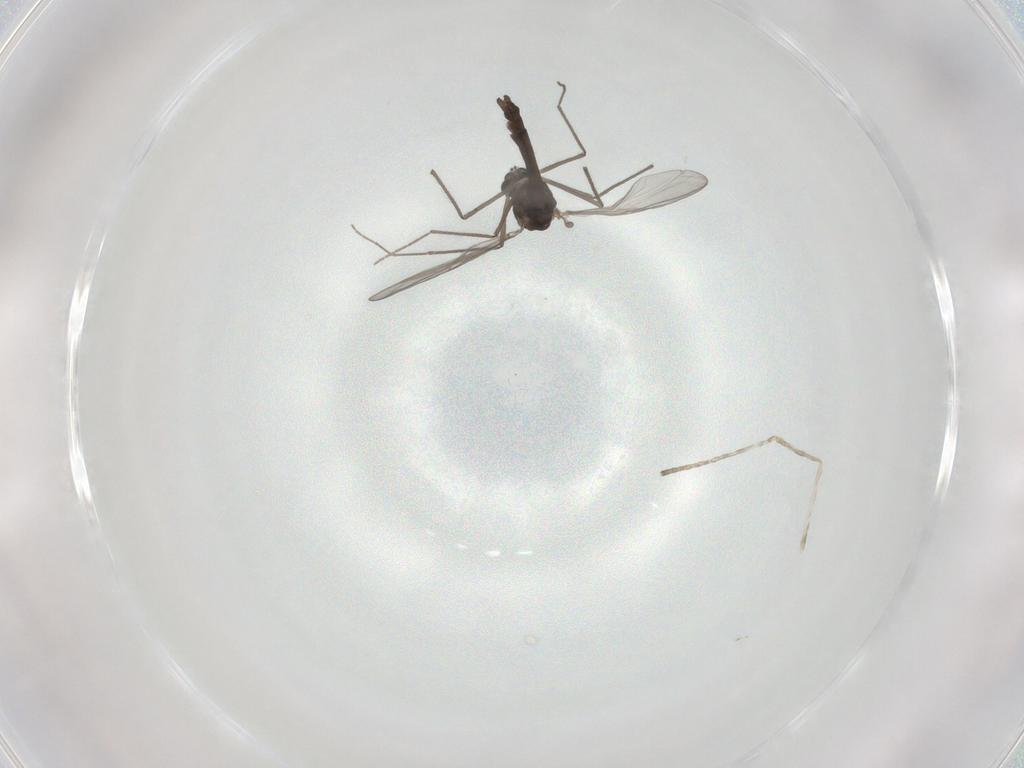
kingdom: Animalia
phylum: Arthropoda
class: Insecta
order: Diptera
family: Chironomidae
